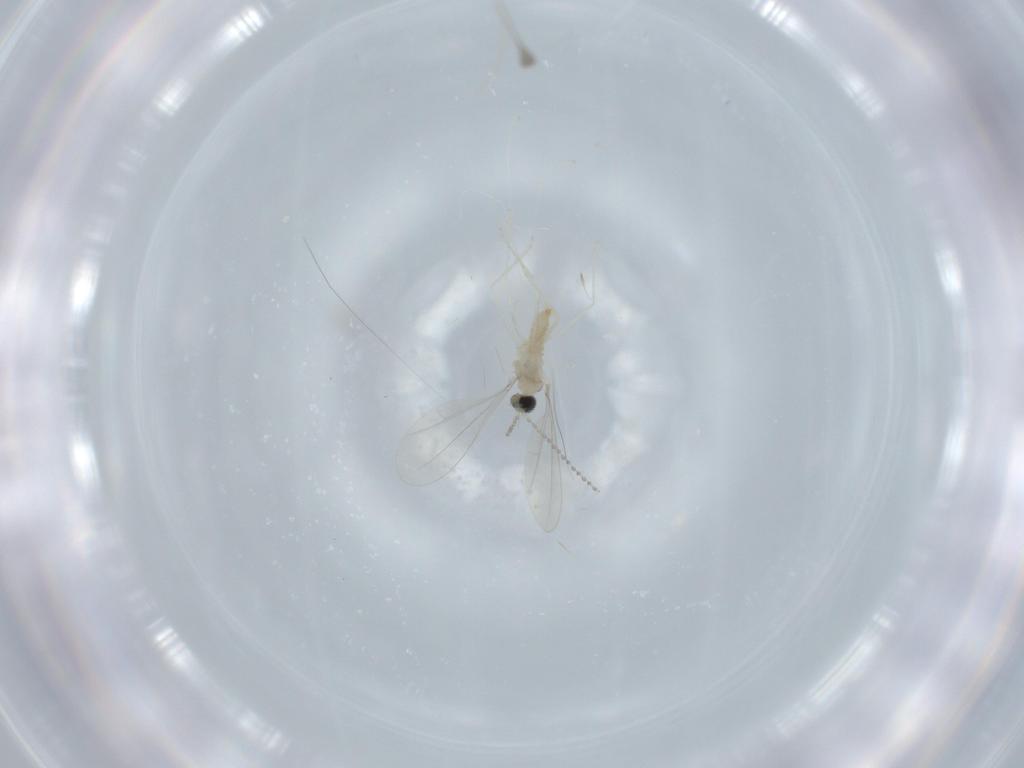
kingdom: Animalia
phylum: Arthropoda
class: Insecta
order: Diptera
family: Cecidomyiidae
